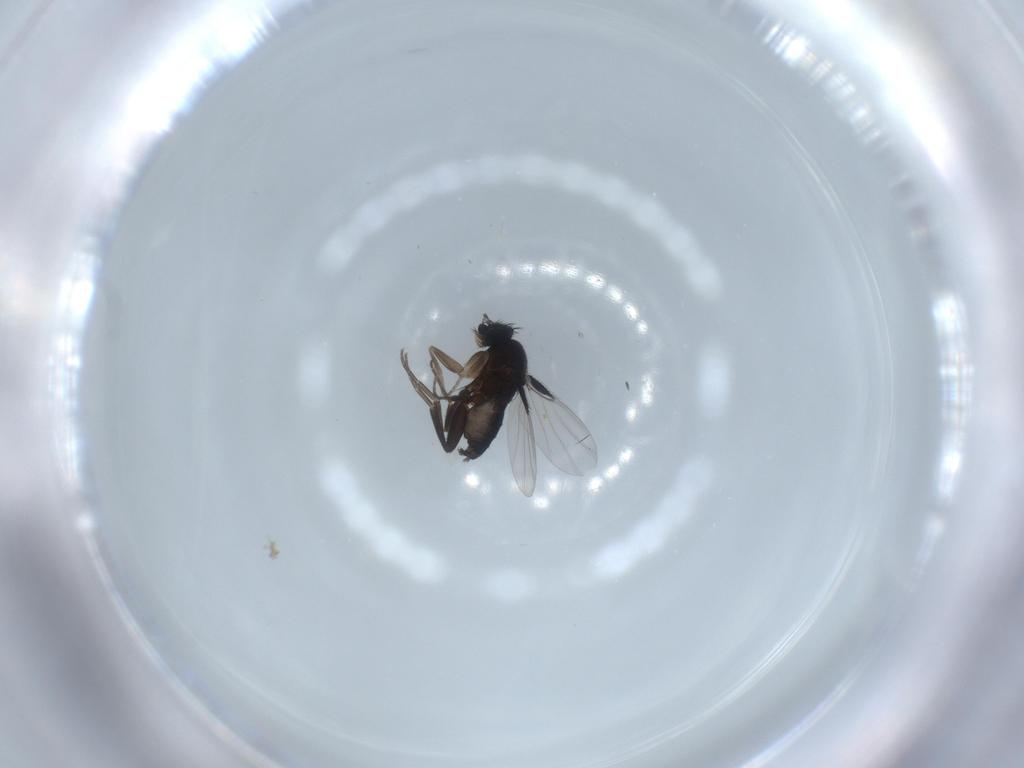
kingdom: Animalia
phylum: Arthropoda
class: Insecta
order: Diptera
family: Phoridae
